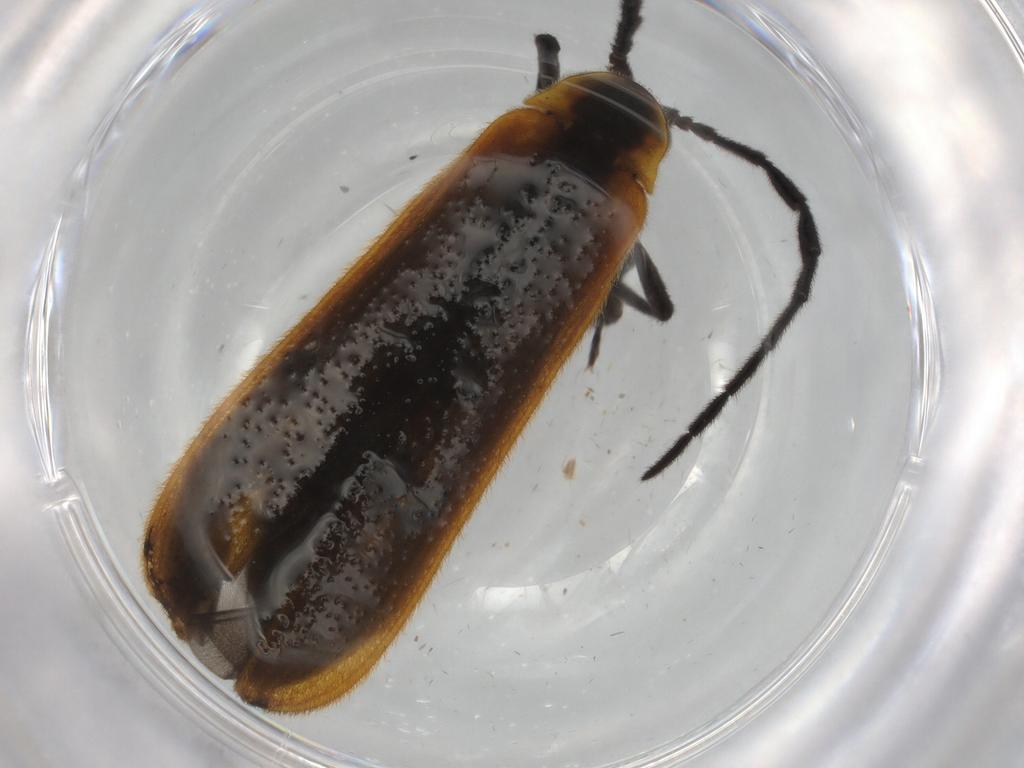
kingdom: Animalia
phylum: Arthropoda
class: Insecta
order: Coleoptera
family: Lycidae
